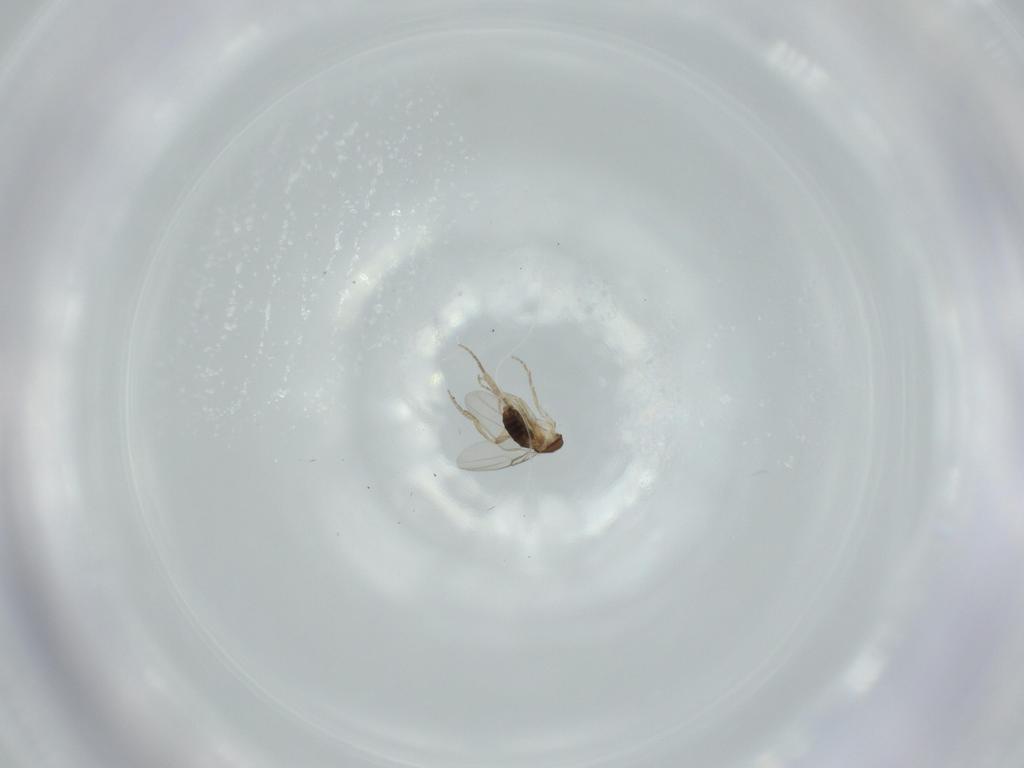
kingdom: Animalia
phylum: Arthropoda
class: Insecta
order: Diptera
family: Phoridae
